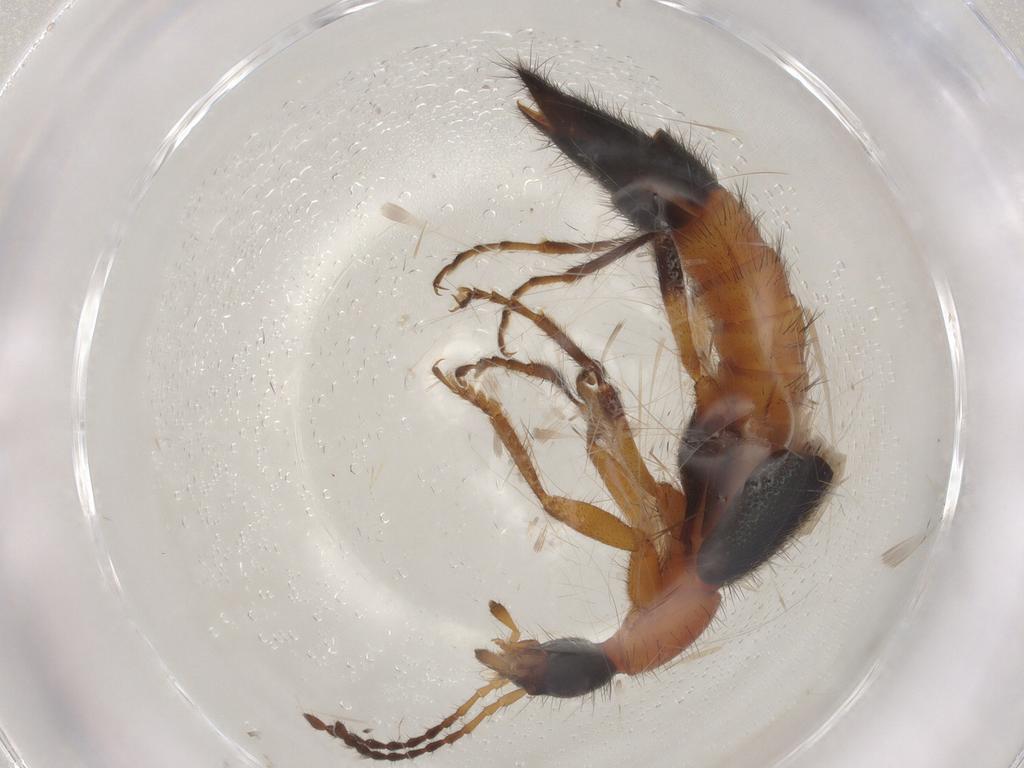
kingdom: Animalia
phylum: Arthropoda
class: Insecta
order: Coleoptera
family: Staphylinidae
